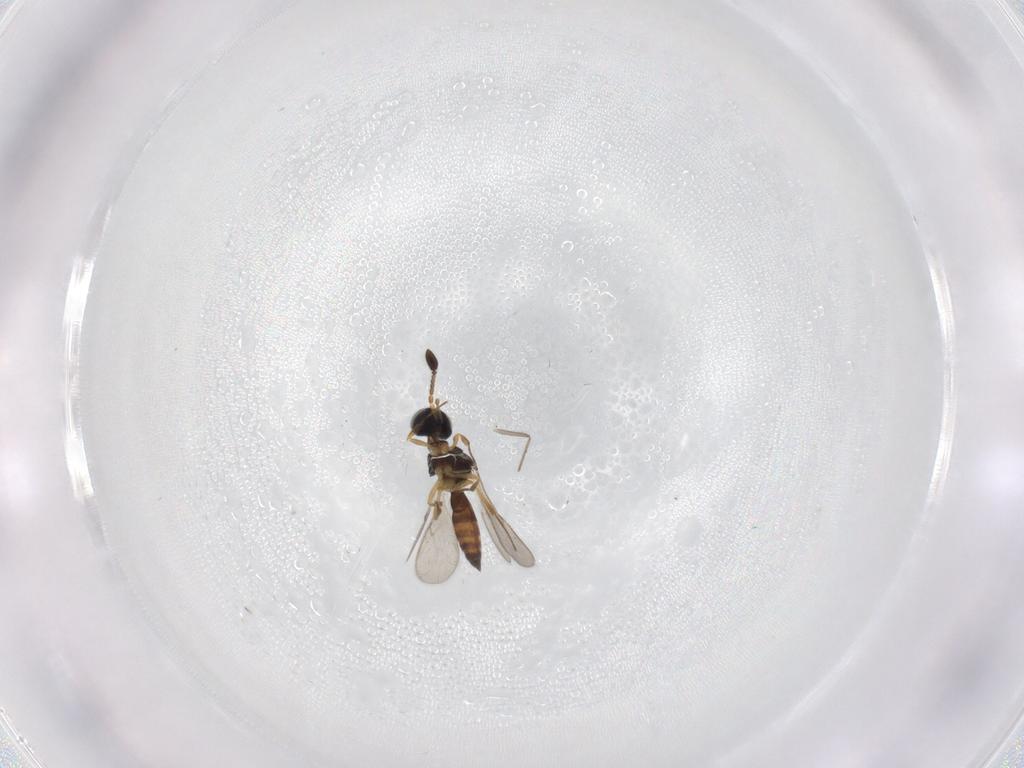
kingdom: Animalia
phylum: Arthropoda
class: Insecta
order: Hymenoptera
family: Scelionidae
